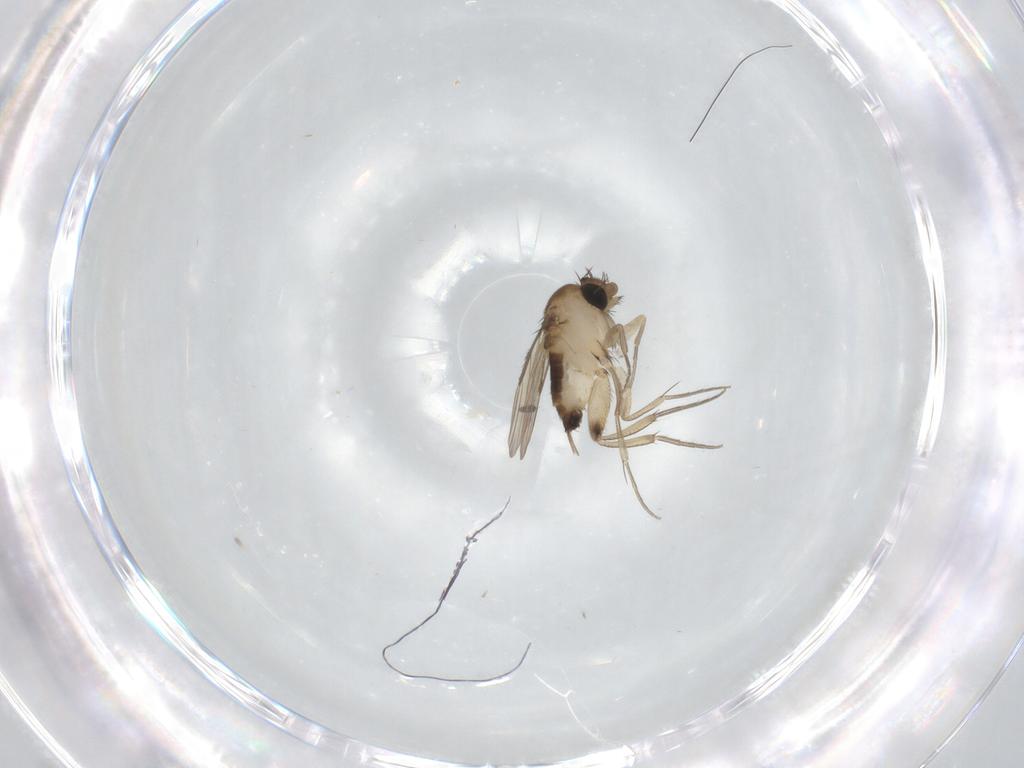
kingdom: Animalia
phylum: Arthropoda
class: Insecta
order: Diptera
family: Phoridae
